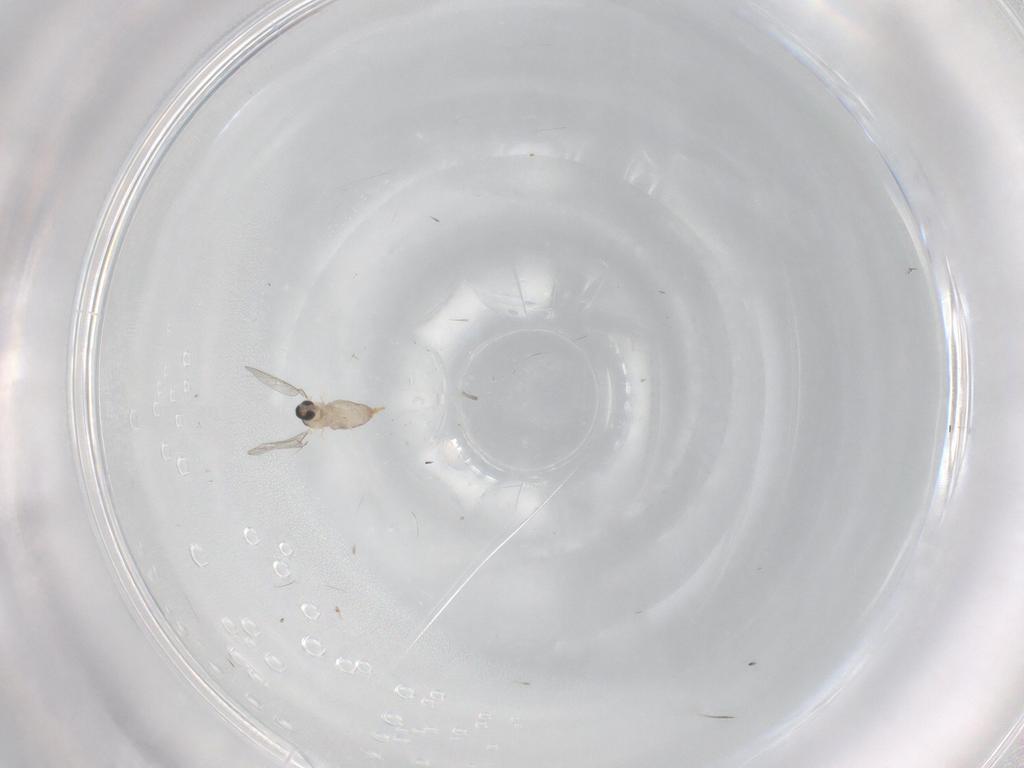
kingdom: Animalia
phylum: Arthropoda
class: Insecta
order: Diptera
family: Cecidomyiidae
